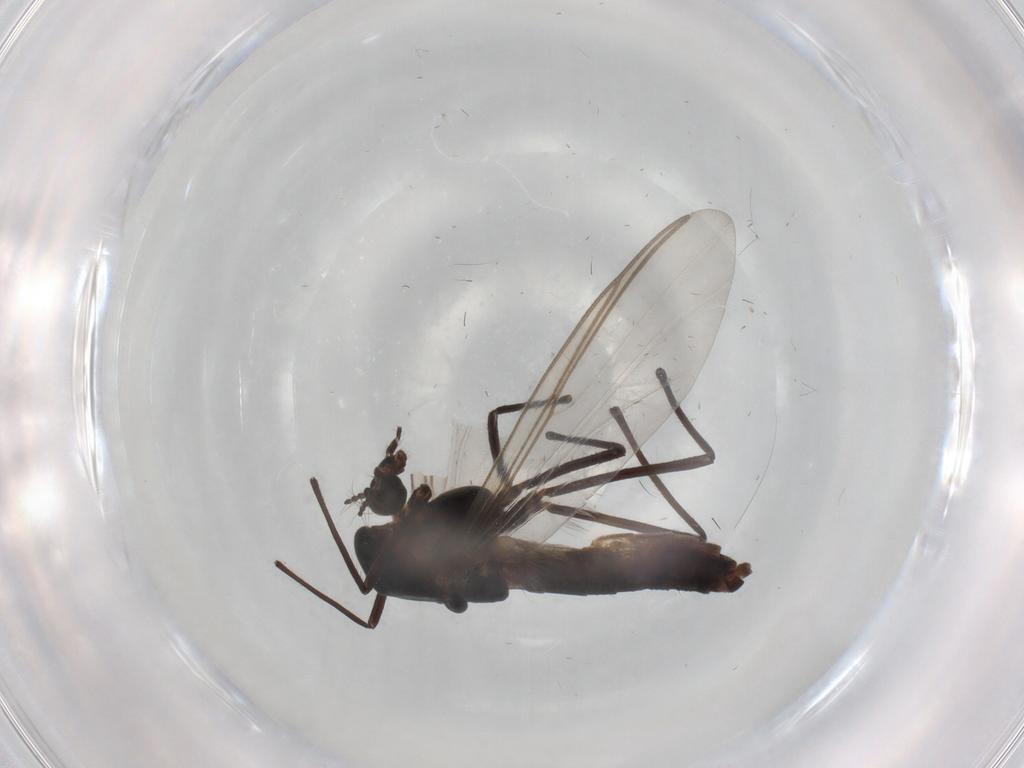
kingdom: Animalia
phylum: Arthropoda
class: Insecta
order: Diptera
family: Chironomidae
